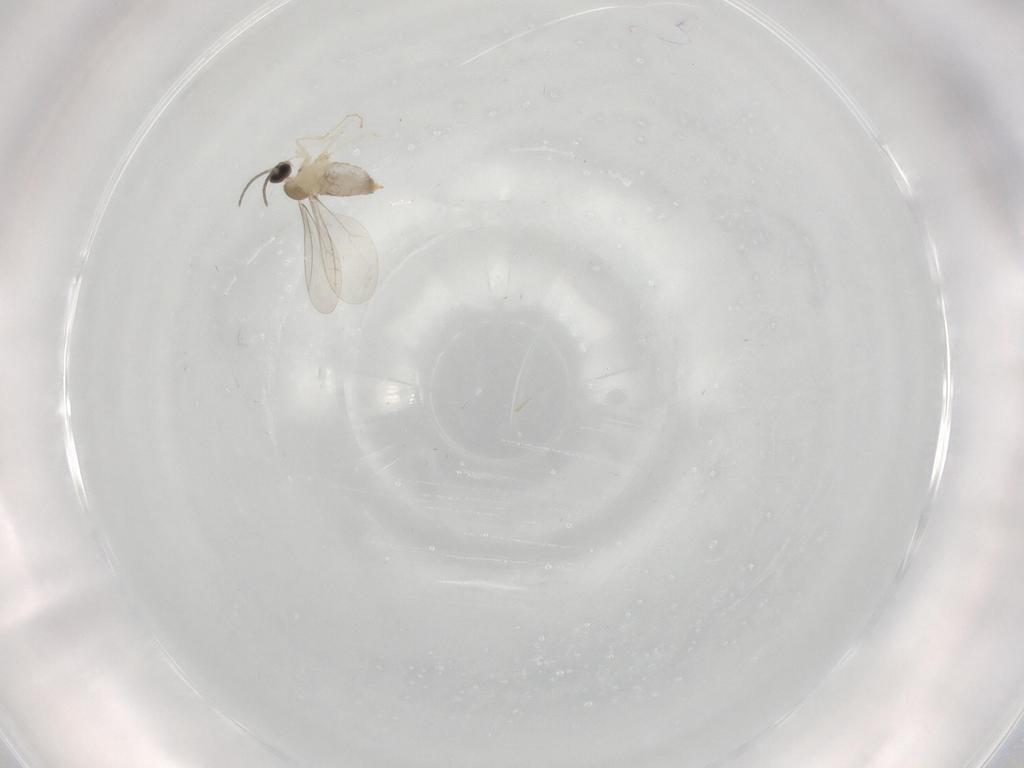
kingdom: Animalia
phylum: Arthropoda
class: Insecta
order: Diptera
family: Cecidomyiidae
